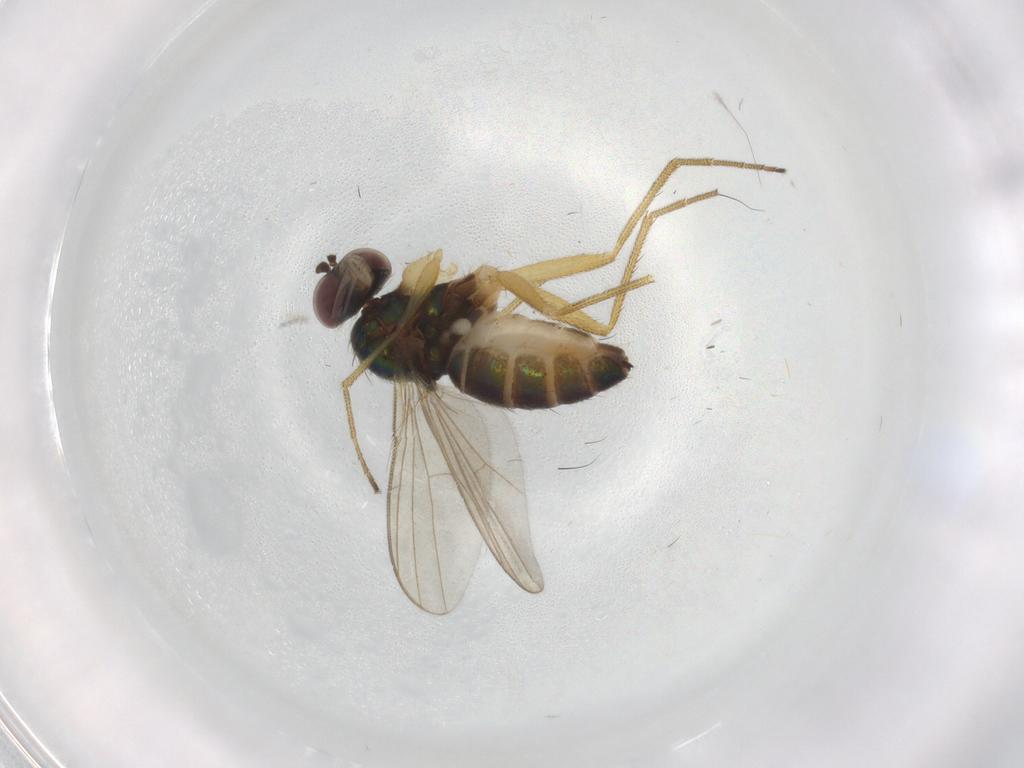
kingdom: Animalia
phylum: Arthropoda
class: Insecta
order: Diptera
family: Dolichopodidae
